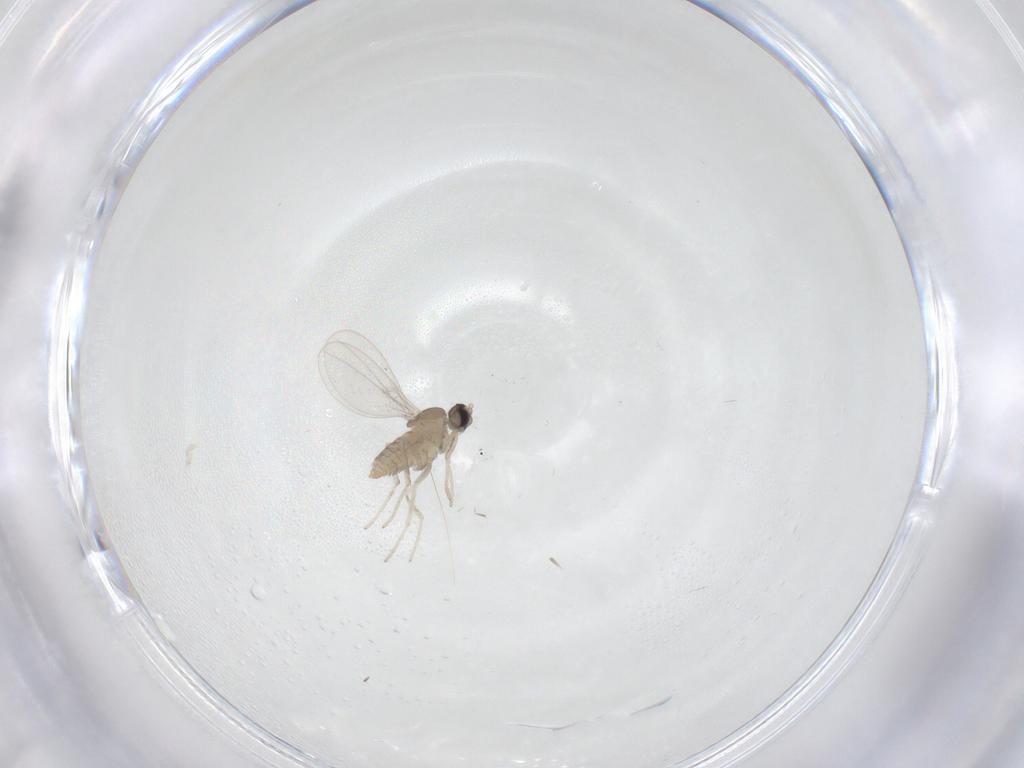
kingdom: Animalia
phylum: Arthropoda
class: Insecta
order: Diptera
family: Cecidomyiidae
